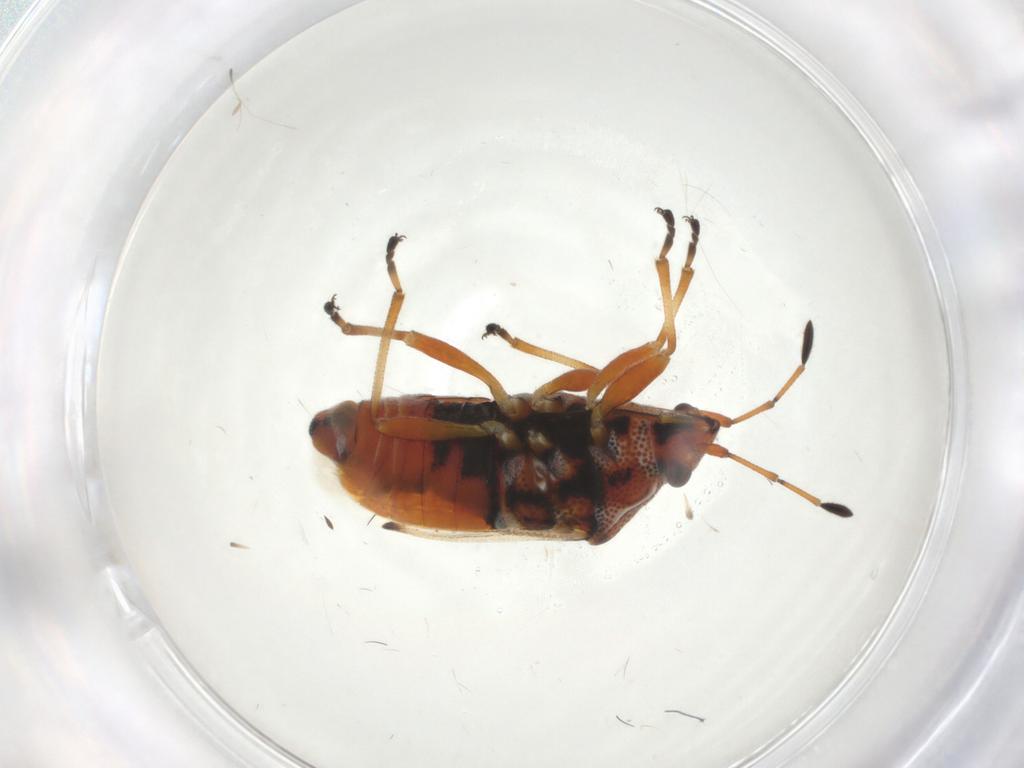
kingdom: Animalia
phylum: Arthropoda
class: Insecta
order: Hemiptera
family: Lygaeidae
